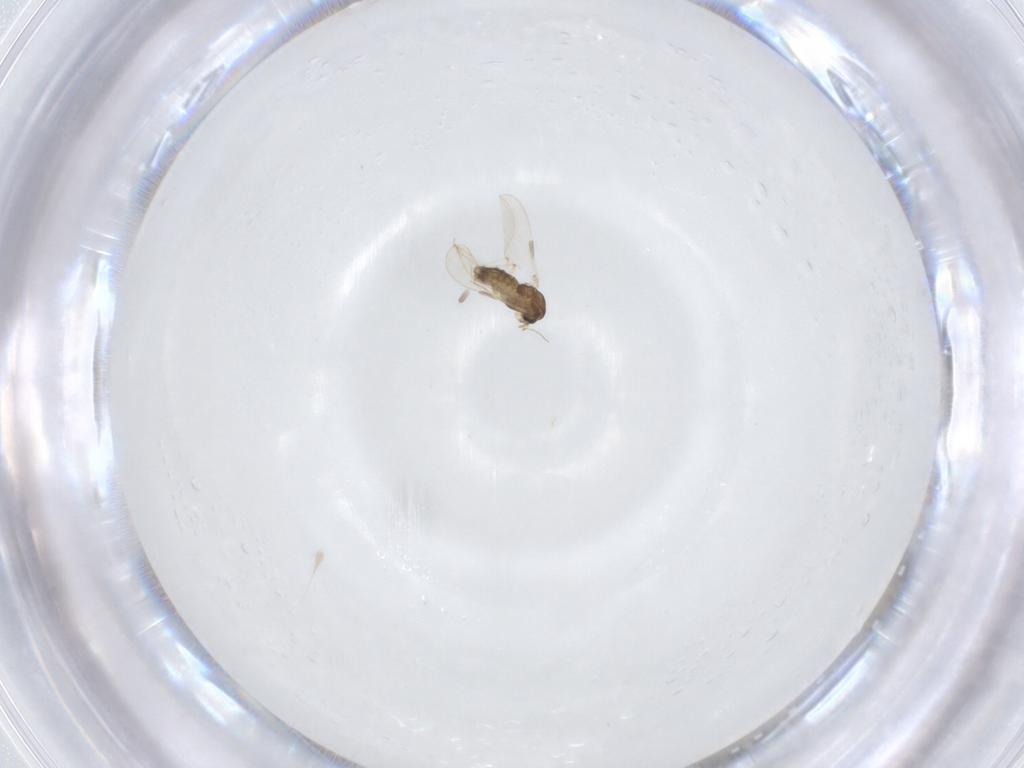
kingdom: Animalia
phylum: Arthropoda
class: Insecta
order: Diptera
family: Chironomidae
